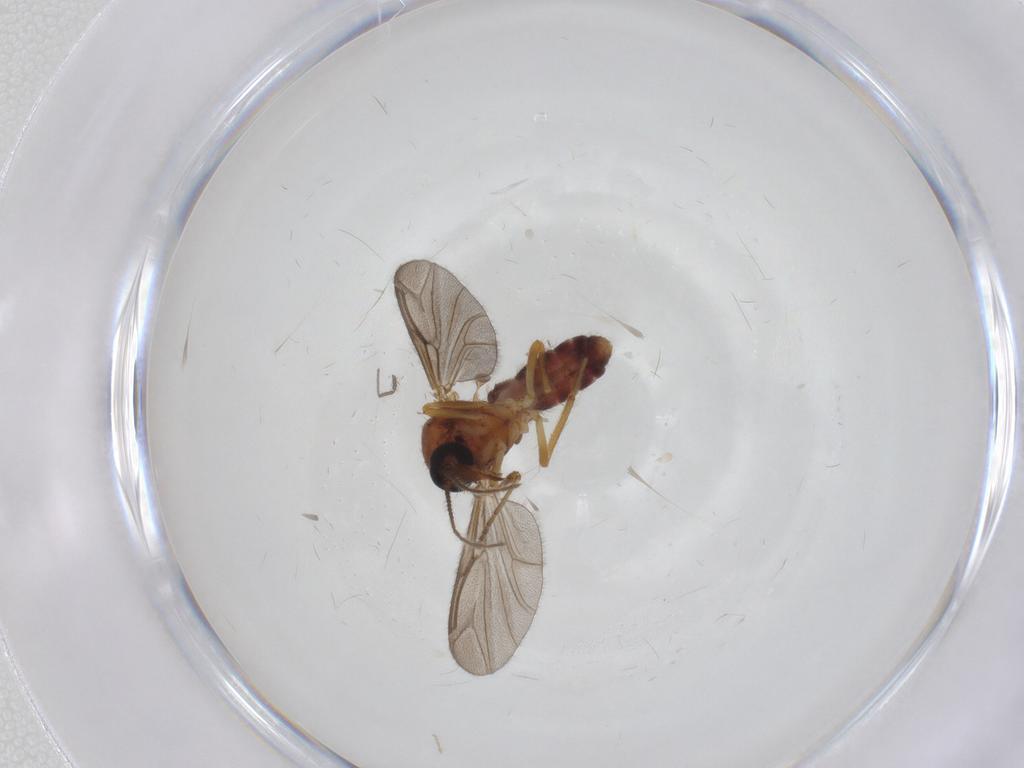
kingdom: Animalia
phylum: Arthropoda
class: Insecta
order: Diptera
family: Ceratopogonidae
